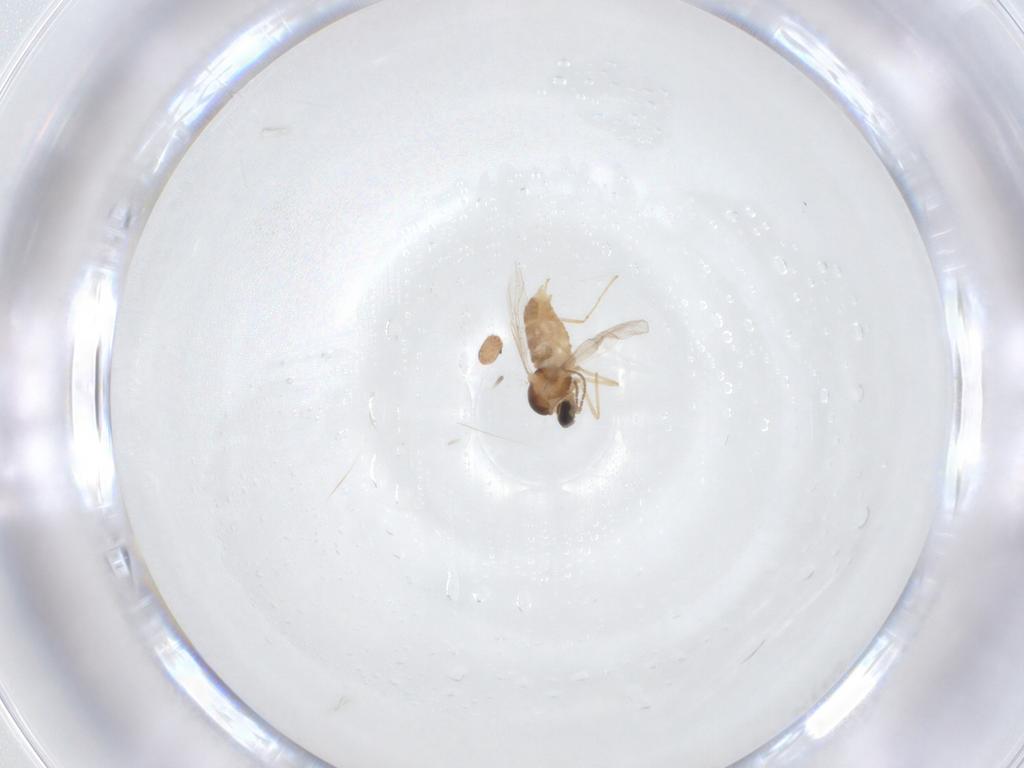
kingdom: Animalia
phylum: Arthropoda
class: Insecta
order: Diptera
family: Cecidomyiidae
